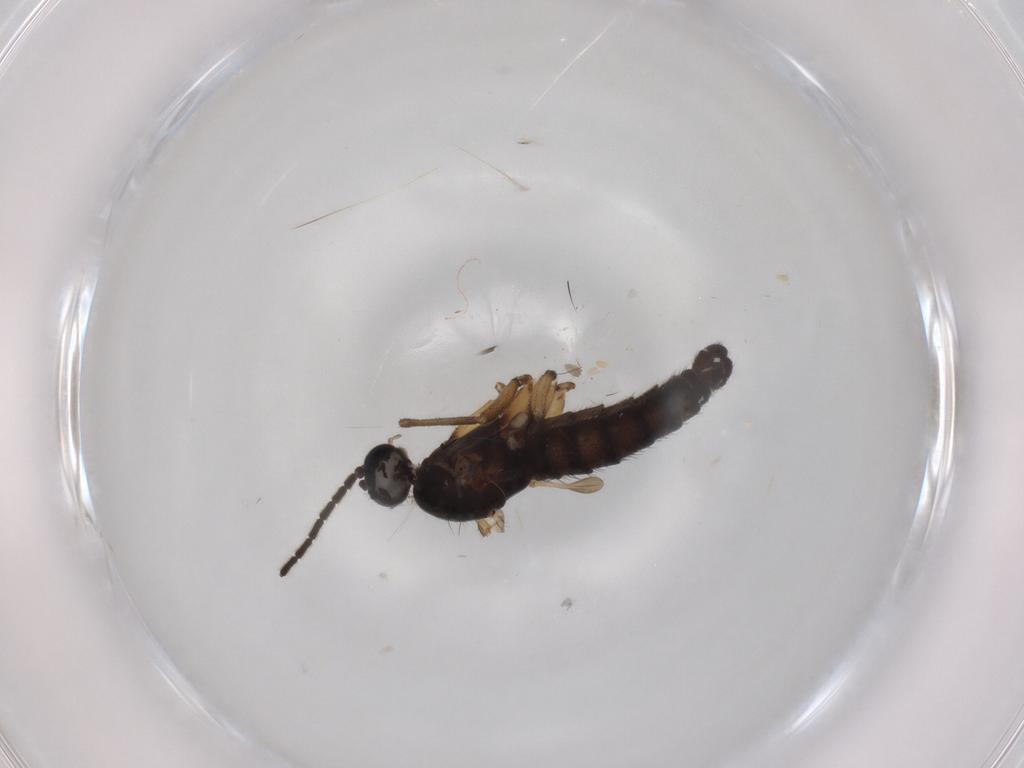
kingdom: Animalia
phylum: Arthropoda
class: Insecta
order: Diptera
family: Sciaridae
